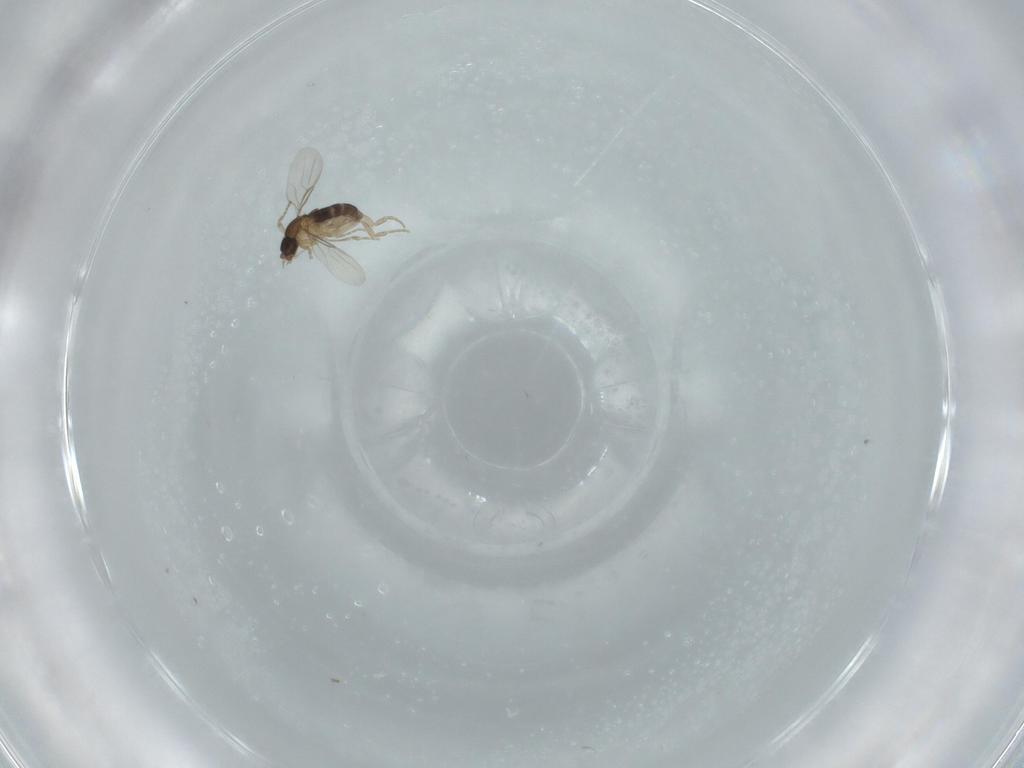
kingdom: Animalia
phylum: Arthropoda
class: Insecta
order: Diptera
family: Phoridae
